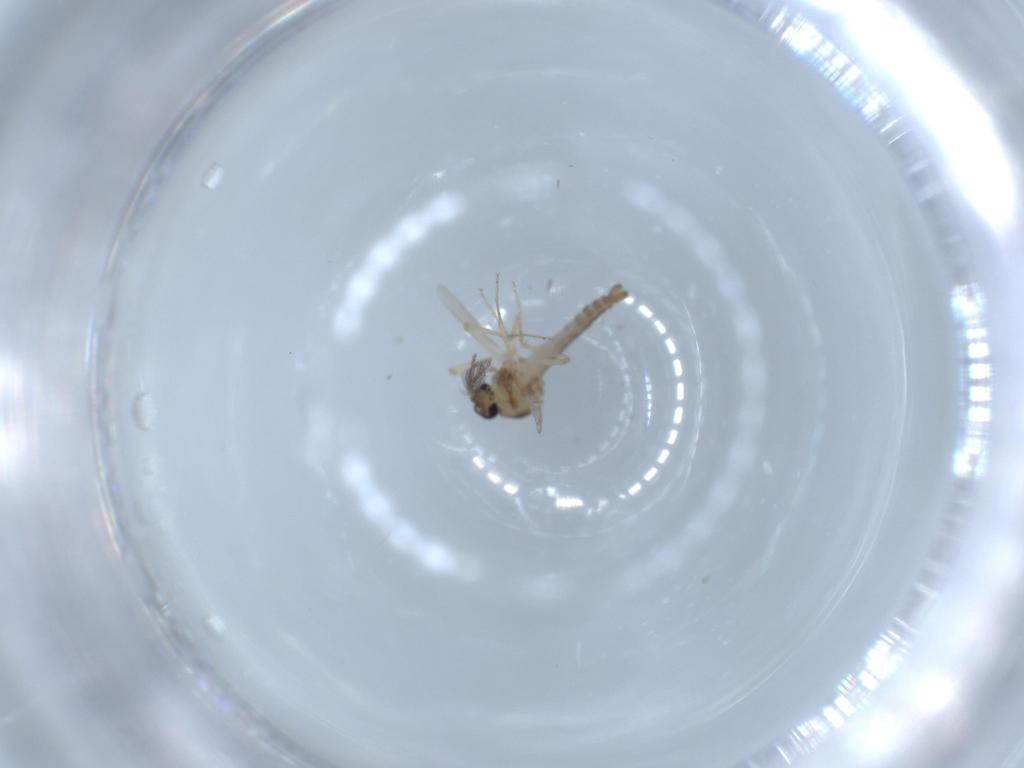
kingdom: Animalia
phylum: Arthropoda
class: Insecta
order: Diptera
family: Ceratopogonidae
